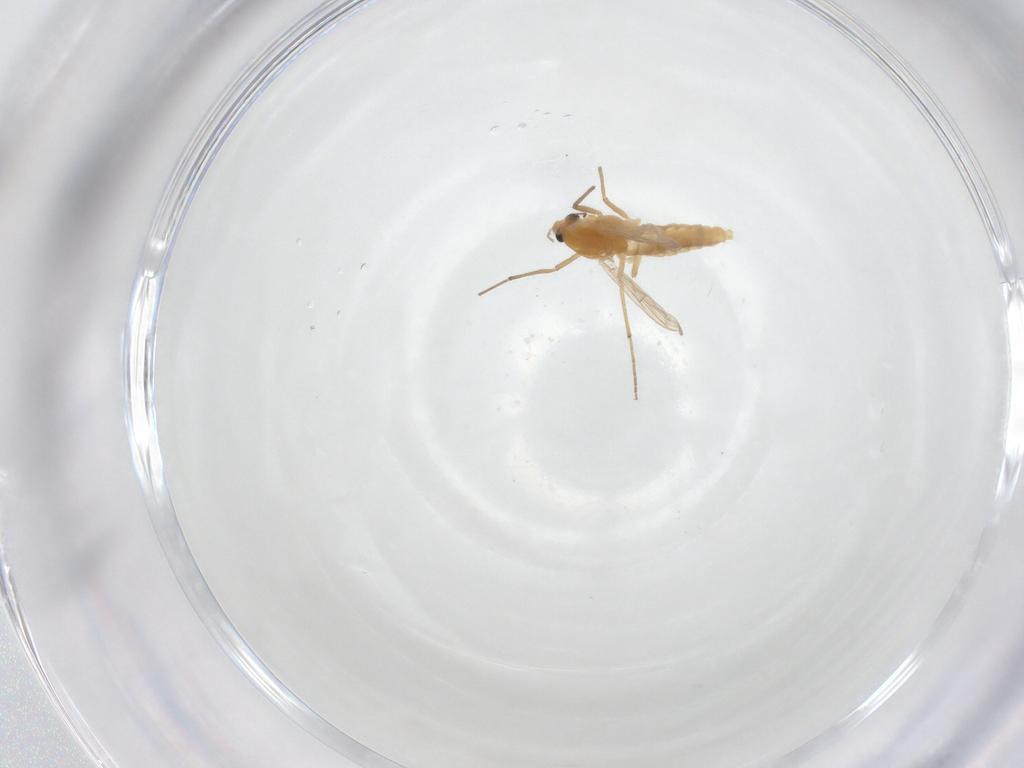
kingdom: Animalia
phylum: Arthropoda
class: Insecta
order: Diptera
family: Chironomidae
